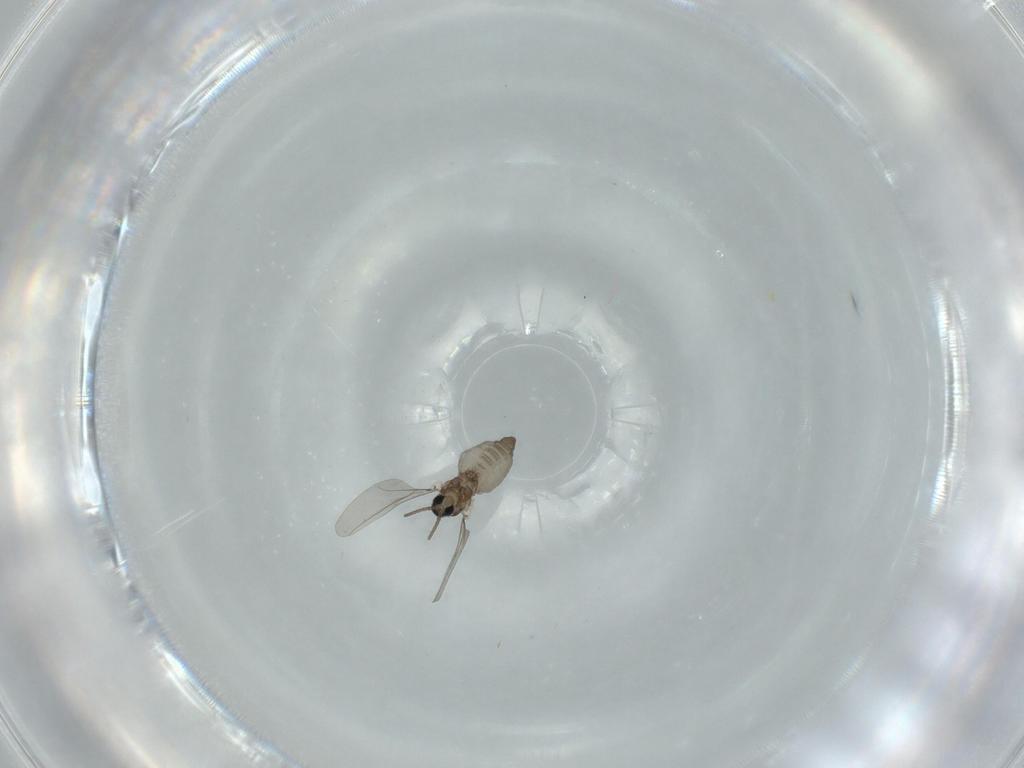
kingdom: Animalia
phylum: Arthropoda
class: Insecta
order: Diptera
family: Cecidomyiidae
